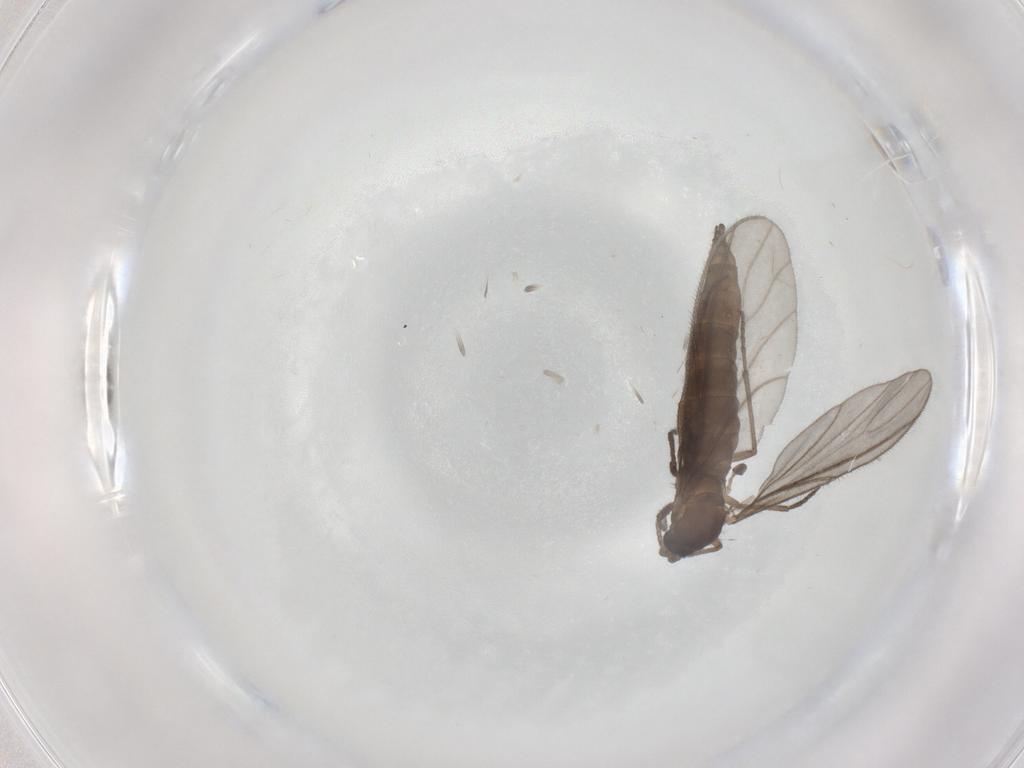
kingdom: Animalia
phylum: Arthropoda
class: Insecta
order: Diptera
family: Sciaridae
